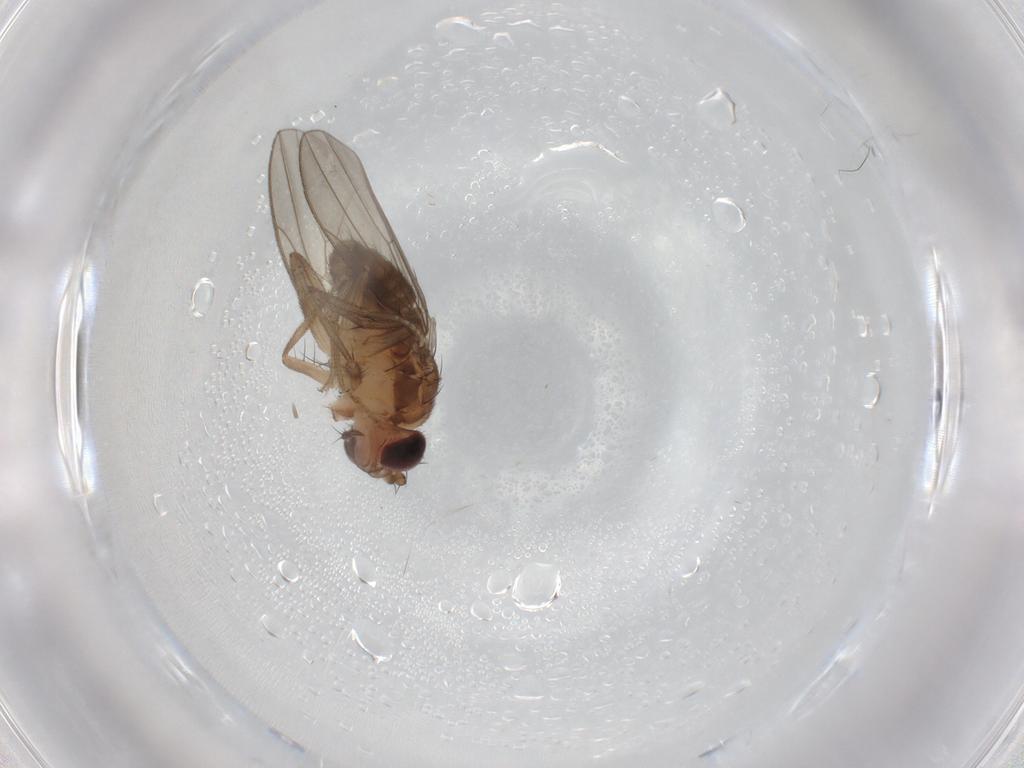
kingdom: Animalia
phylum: Arthropoda
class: Insecta
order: Diptera
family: Drosophilidae
